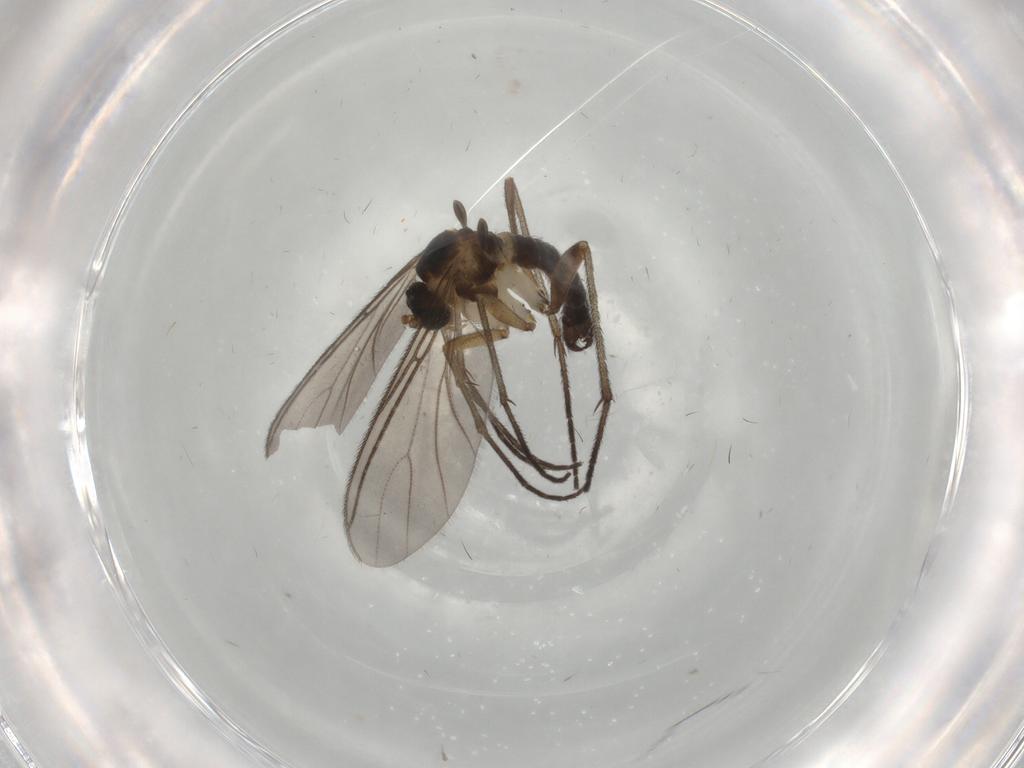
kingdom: Animalia
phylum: Arthropoda
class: Insecta
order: Diptera
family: Sciaridae
